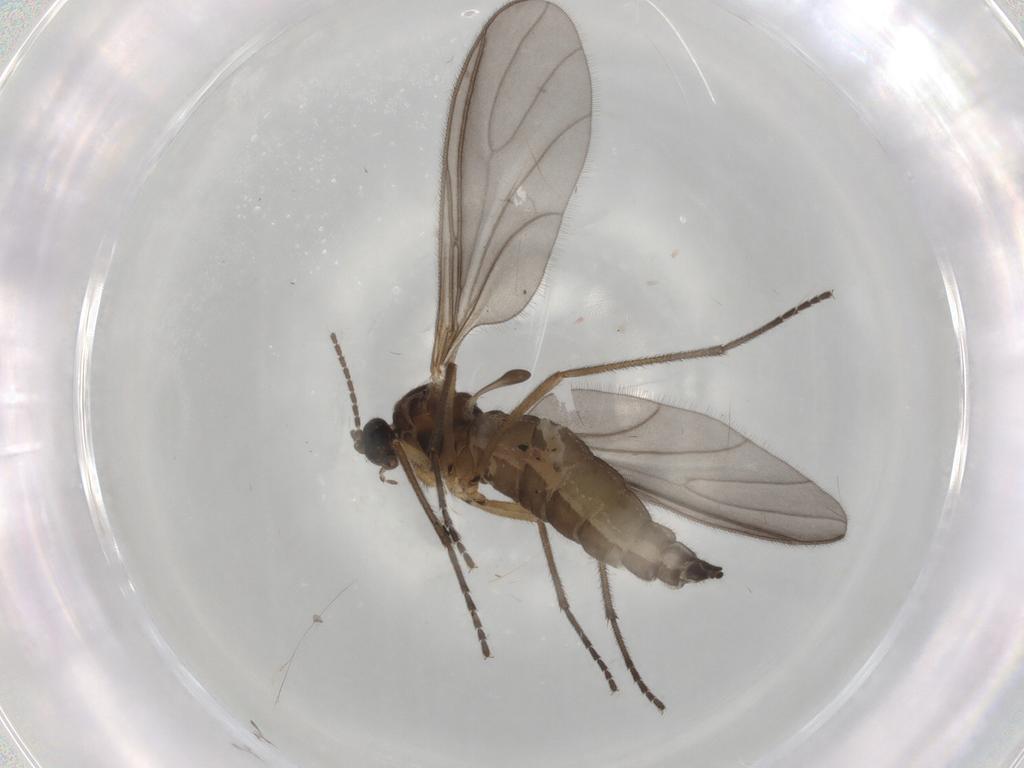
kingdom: Animalia
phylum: Arthropoda
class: Insecta
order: Diptera
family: Sciaridae
